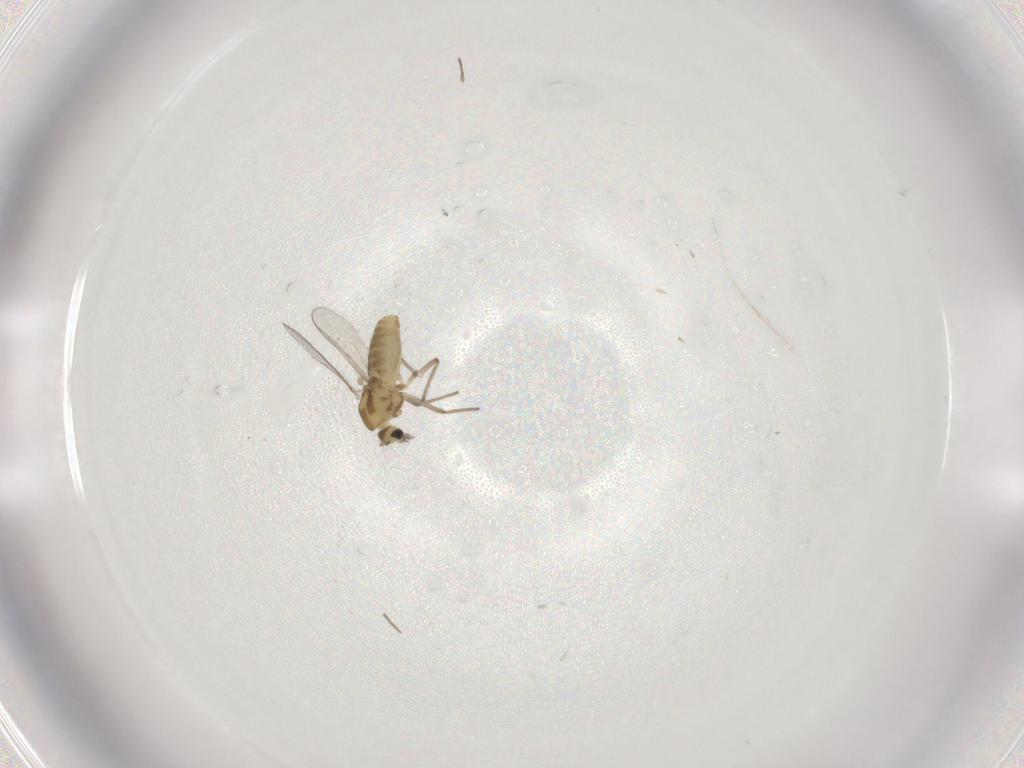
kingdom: Animalia
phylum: Arthropoda
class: Insecta
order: Diptera
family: Chironomidae
